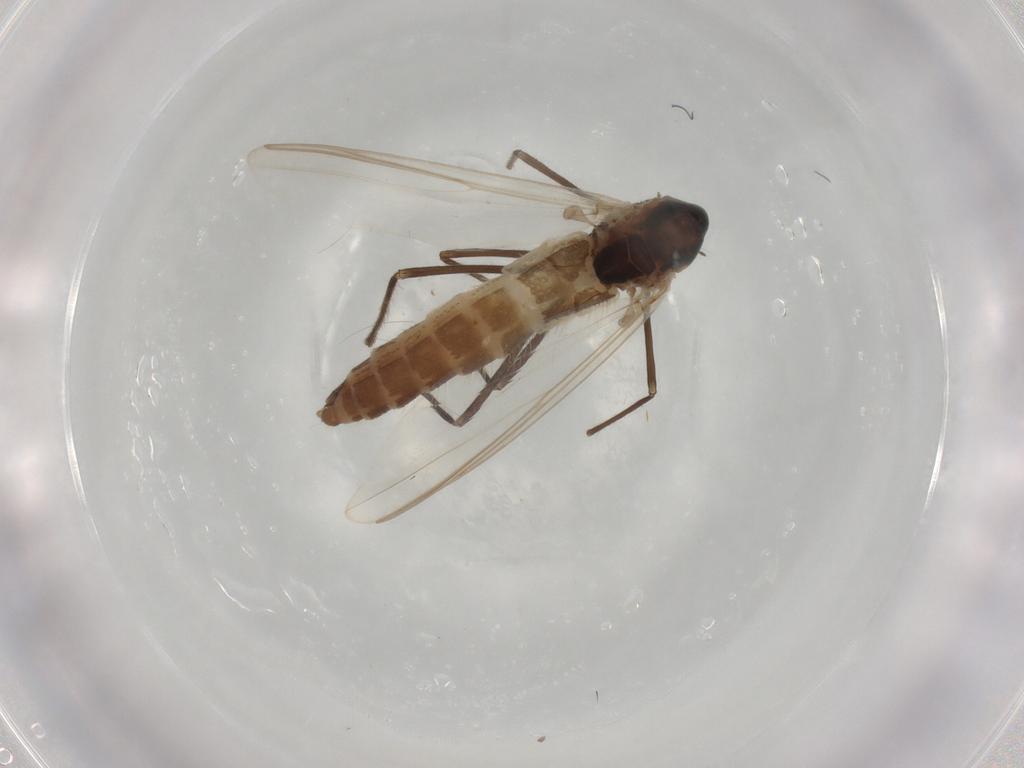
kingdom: Animalia
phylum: Arthropoda
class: Insecta
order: Diptera
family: Chironomidae
